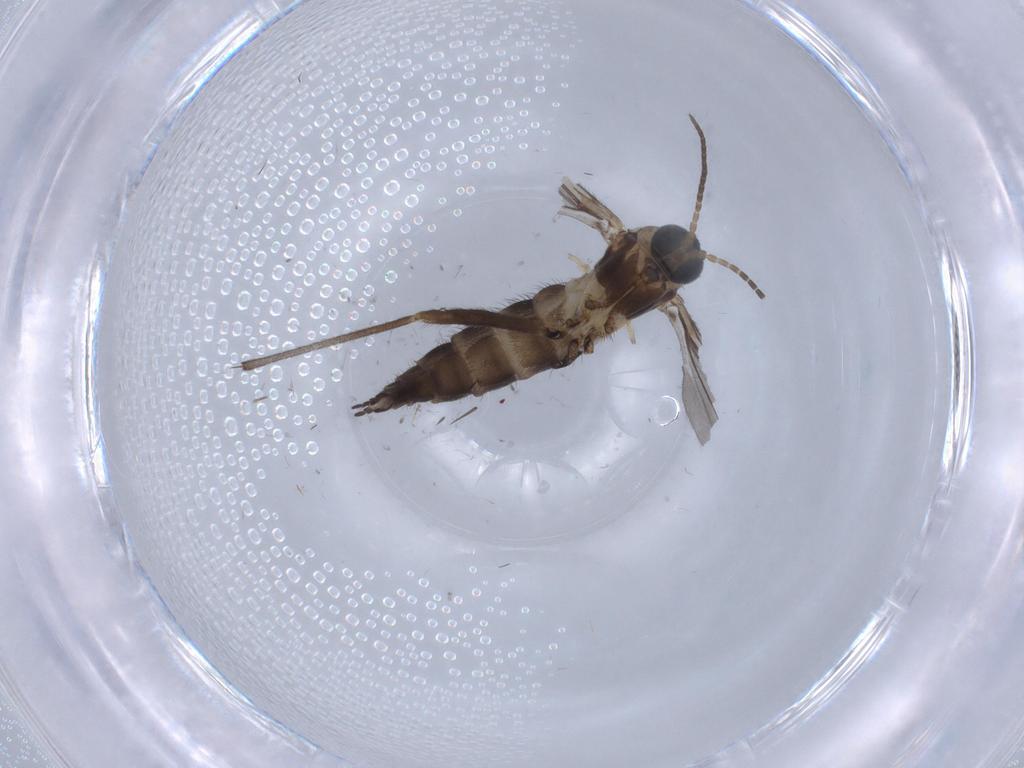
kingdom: Animalia
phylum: Arthropoda
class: Insecta
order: Diptera
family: Sciaridae
